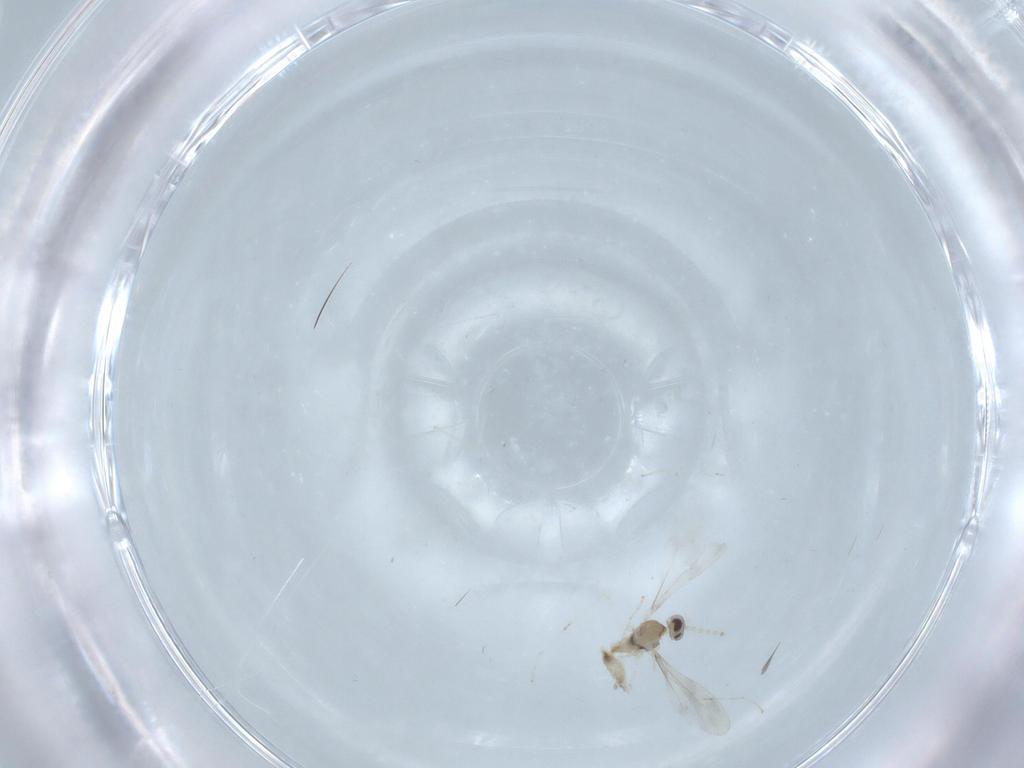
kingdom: Animalia
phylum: Arthropoda
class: Insecta
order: Diptera
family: Cecidomyiidae
